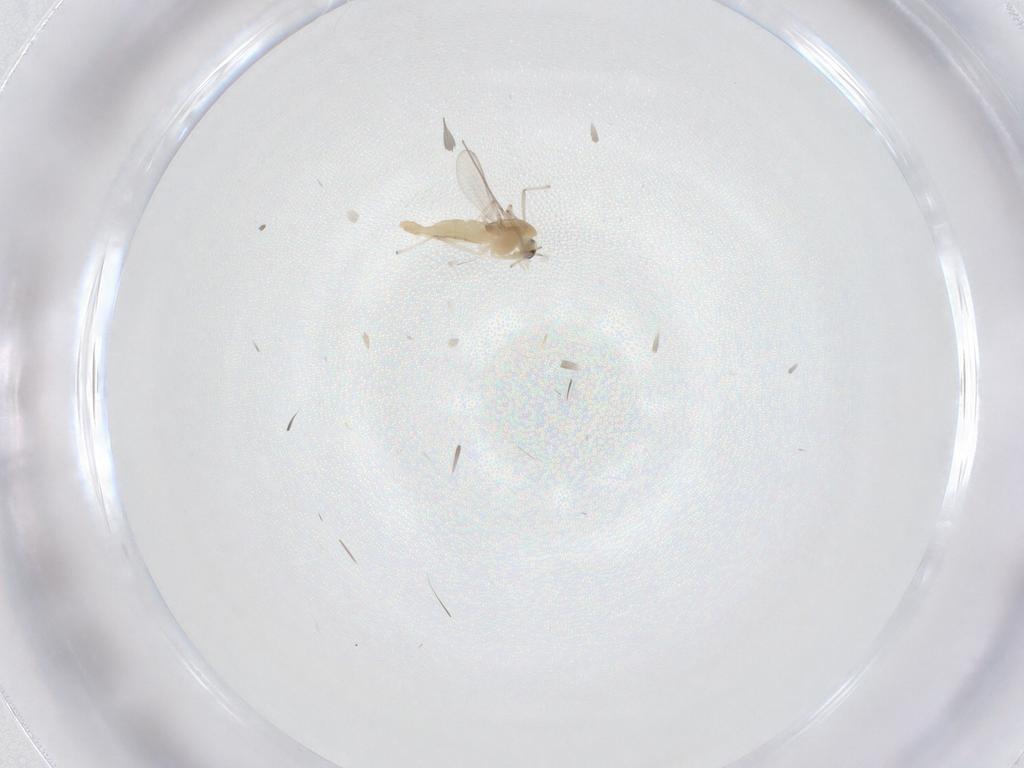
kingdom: Animalia
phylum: Arthropoda
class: Insecta
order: Diptera
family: Chironomidae
